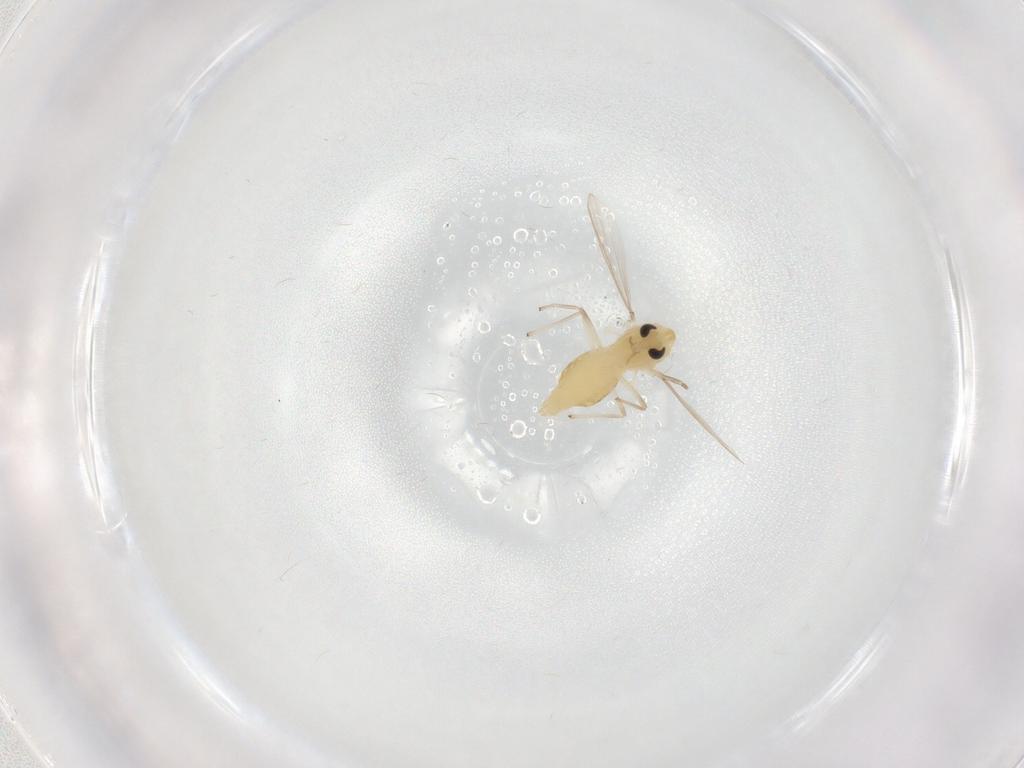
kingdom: Animalia
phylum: Arthropoda
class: Insecta
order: Diptera
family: Chironomidae
